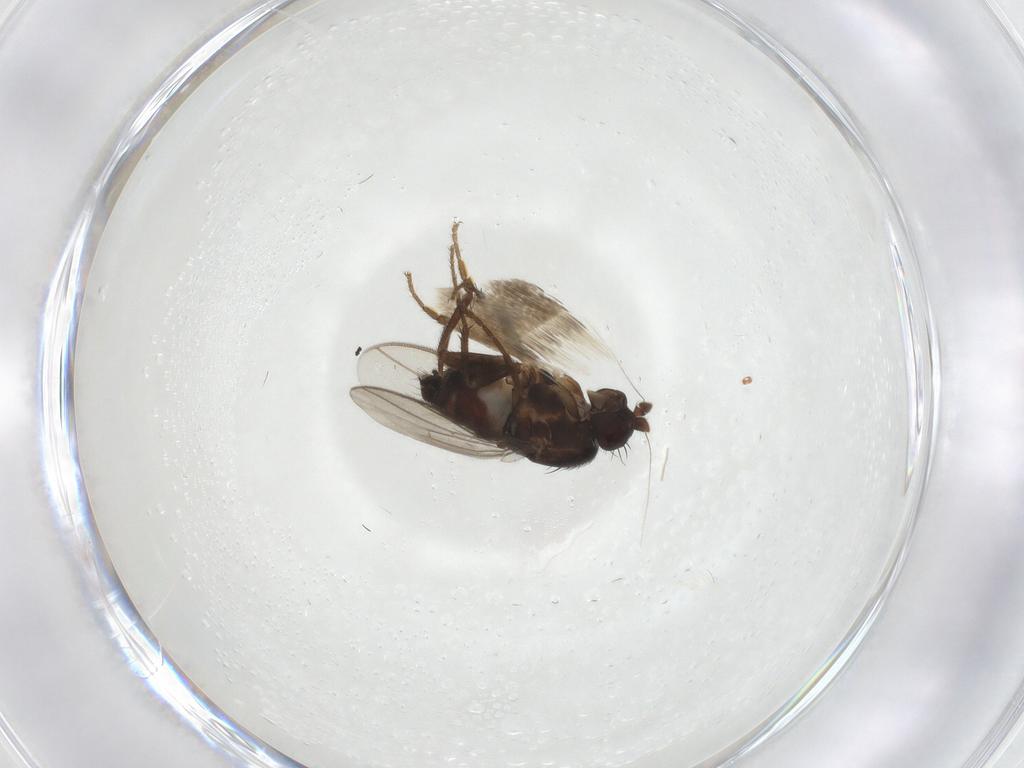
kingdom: Animalia
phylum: Arthropoda
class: Insecta
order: Diptera
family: Sphaeroceridae
